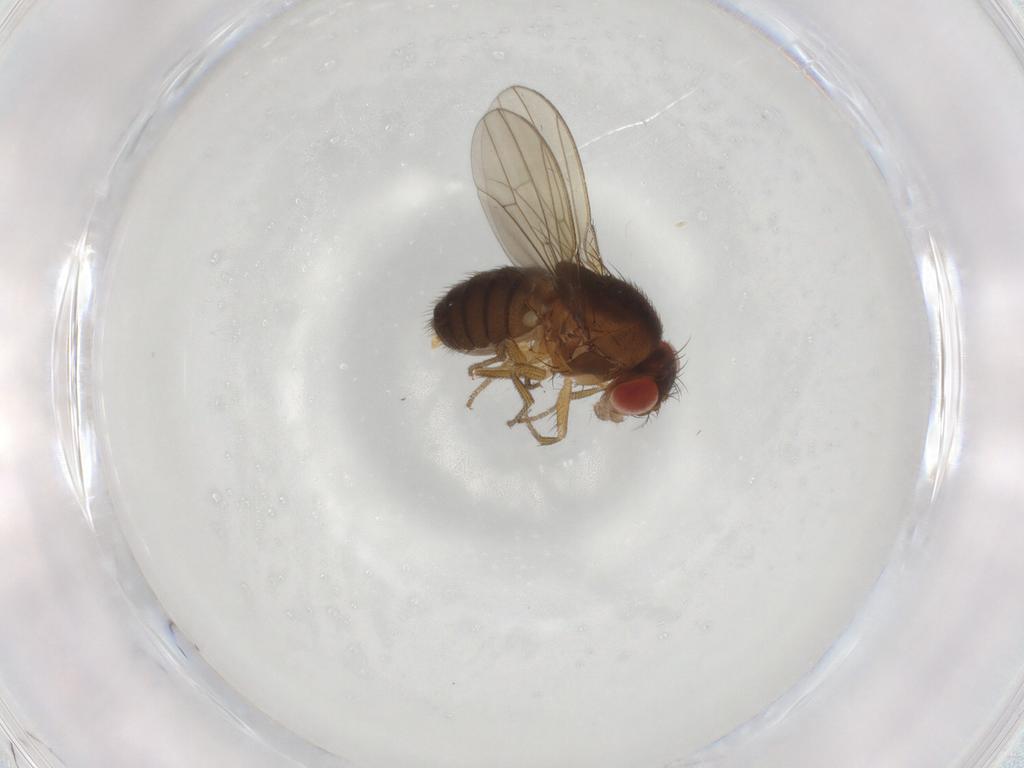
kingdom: Animalia
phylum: Arthropoda
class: Insecta
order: Diptera
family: Drosophilidae
